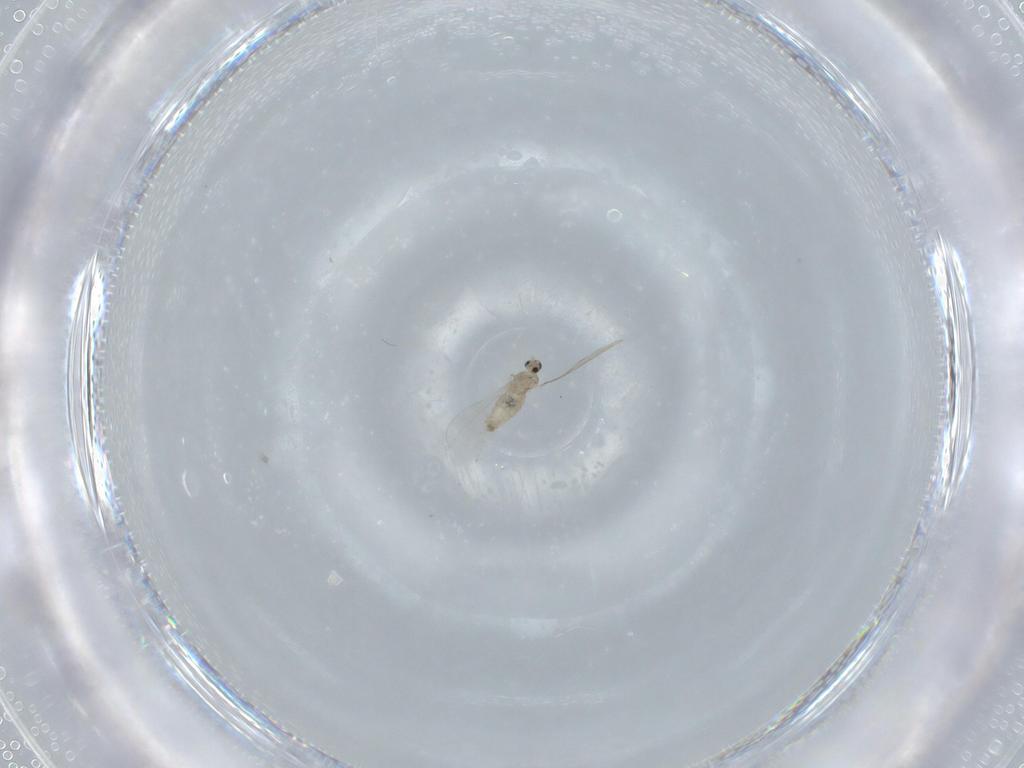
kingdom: Animalia
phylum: Arthropoda
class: Insecta
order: Diptera
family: Cecidomyiidae
